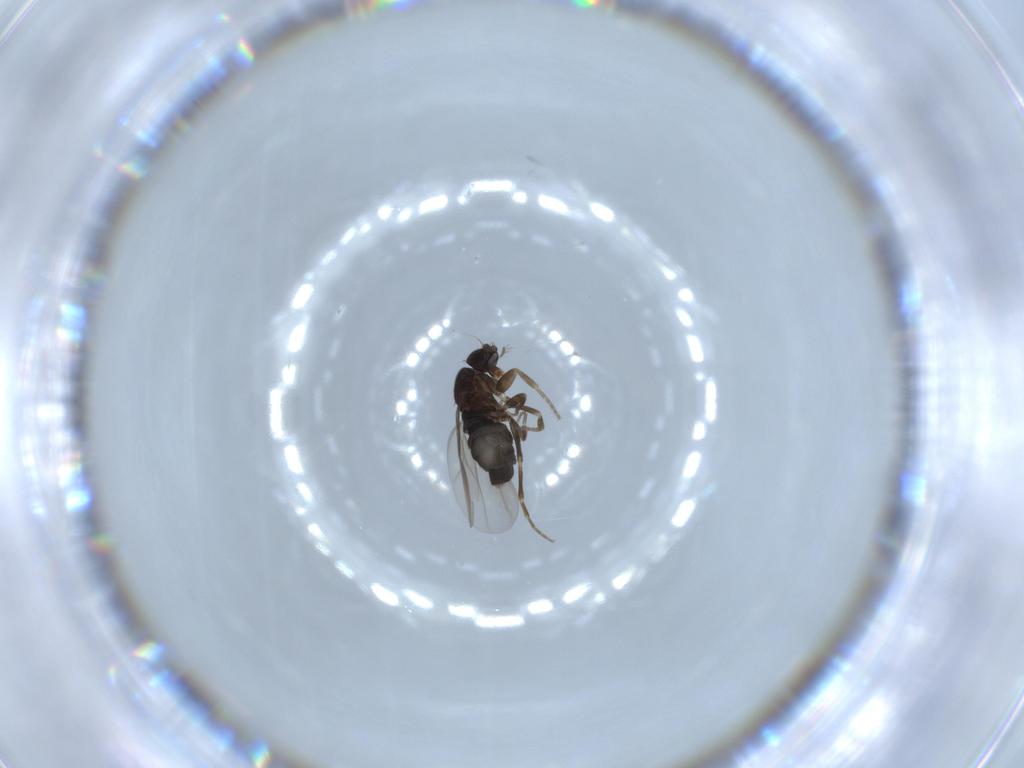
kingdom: Animalia
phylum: Arthropoda
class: Insecta
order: Diptera
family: Phoridae
